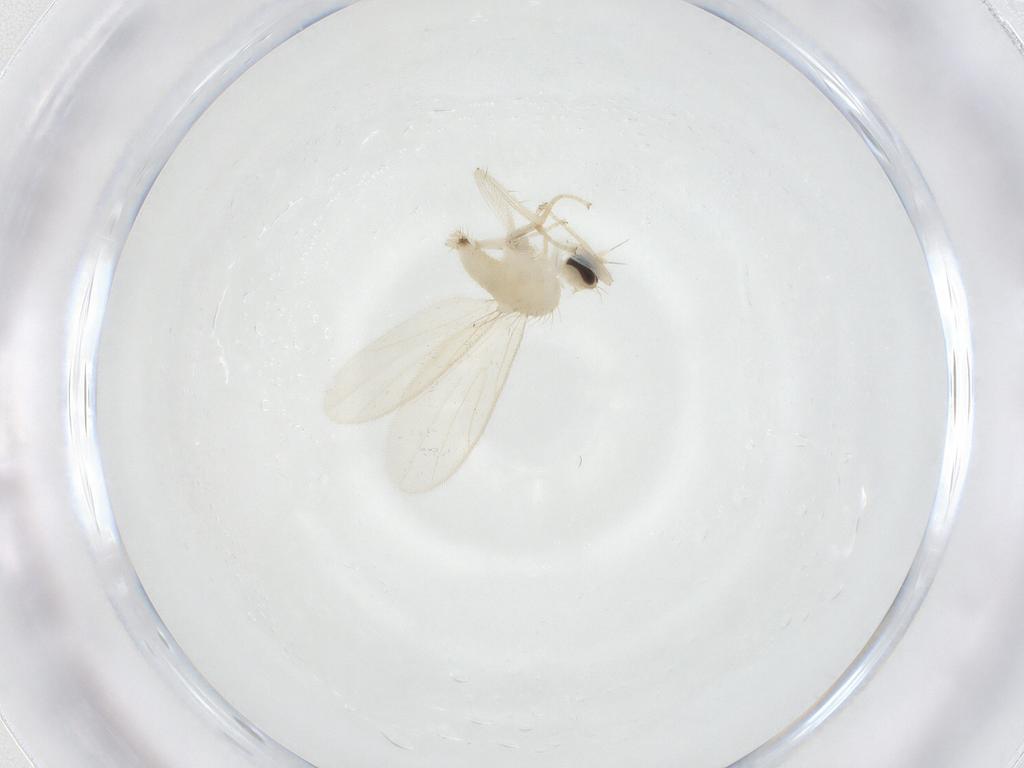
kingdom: Animalia
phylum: Arthropoda
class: Insecta
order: Diptera
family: Hybotidae
